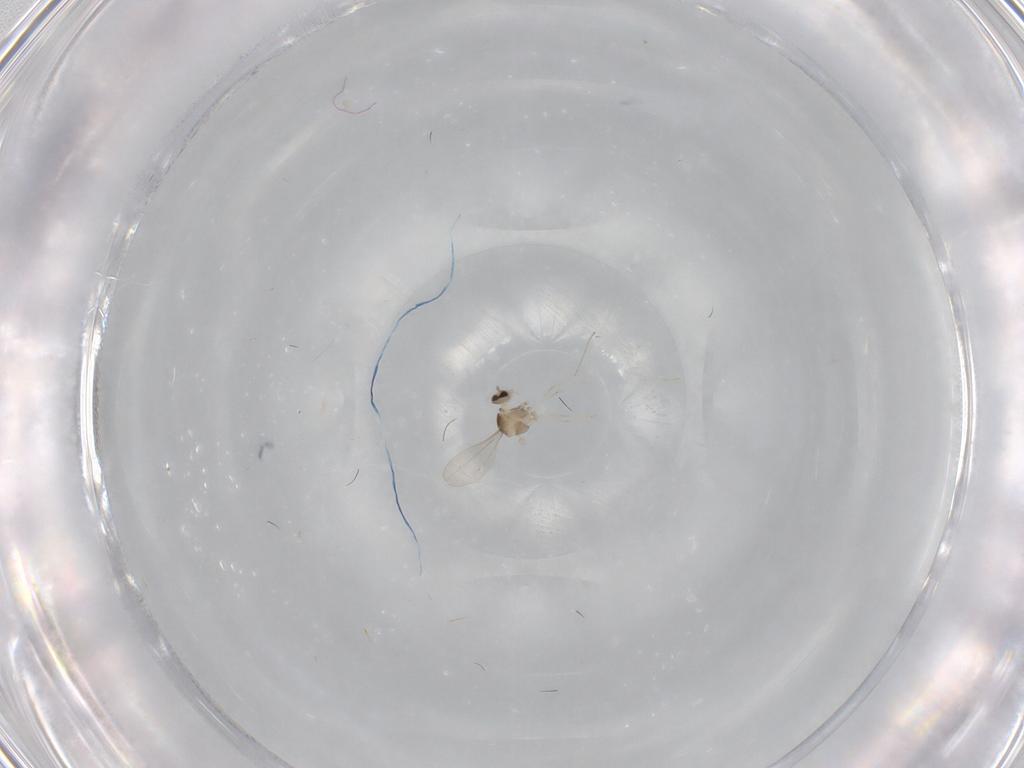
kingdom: Animalia
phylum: Arthropoda
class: Insecta
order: Diptera
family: Cecidomyiidae
